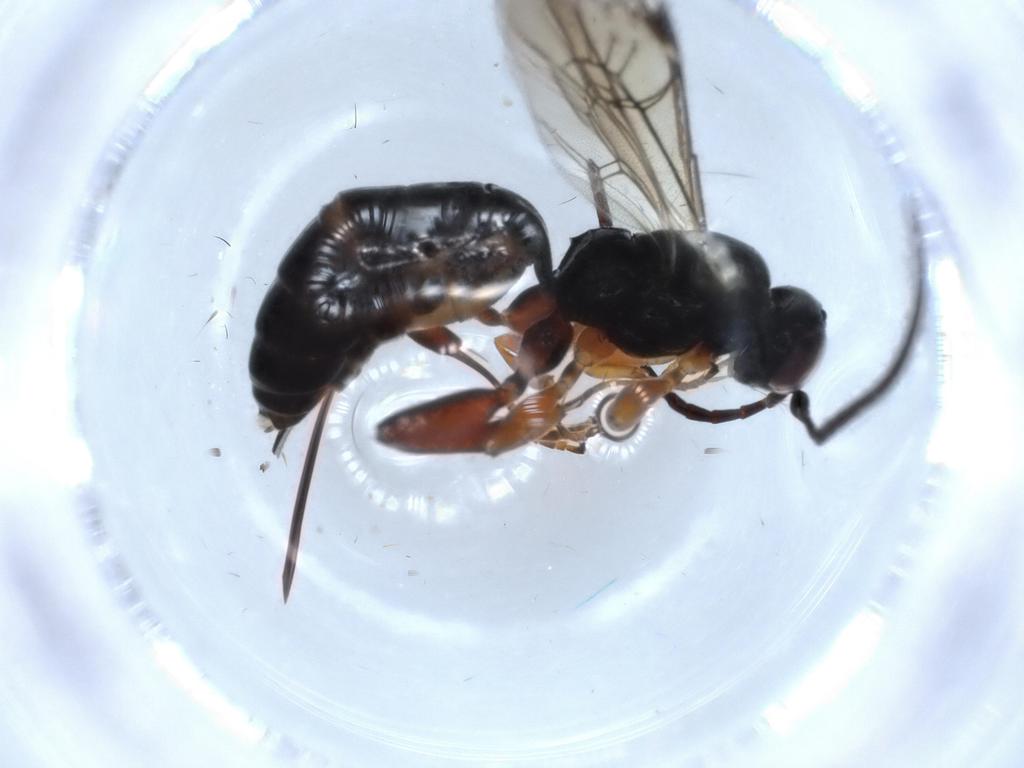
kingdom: Animalia
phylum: Arthropoda
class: Insecta
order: Hymenoptera
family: Ichneumonidae
